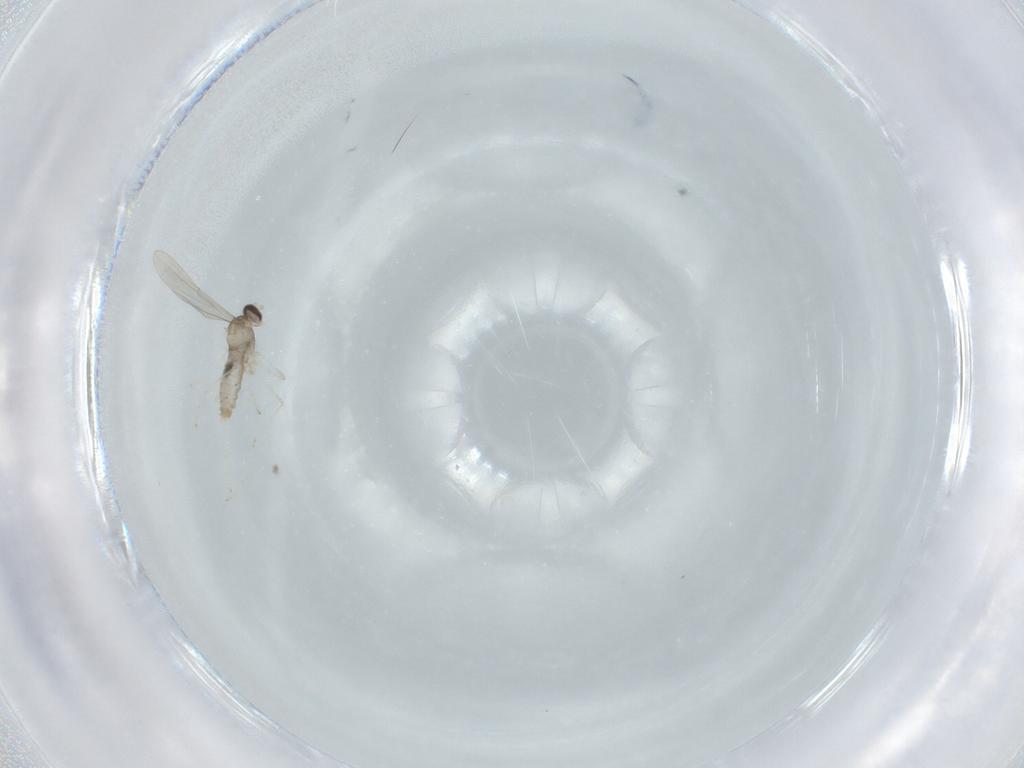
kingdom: Animalia
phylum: Arthropoda
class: Insecta
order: Diptera
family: Cecidomyiidae
